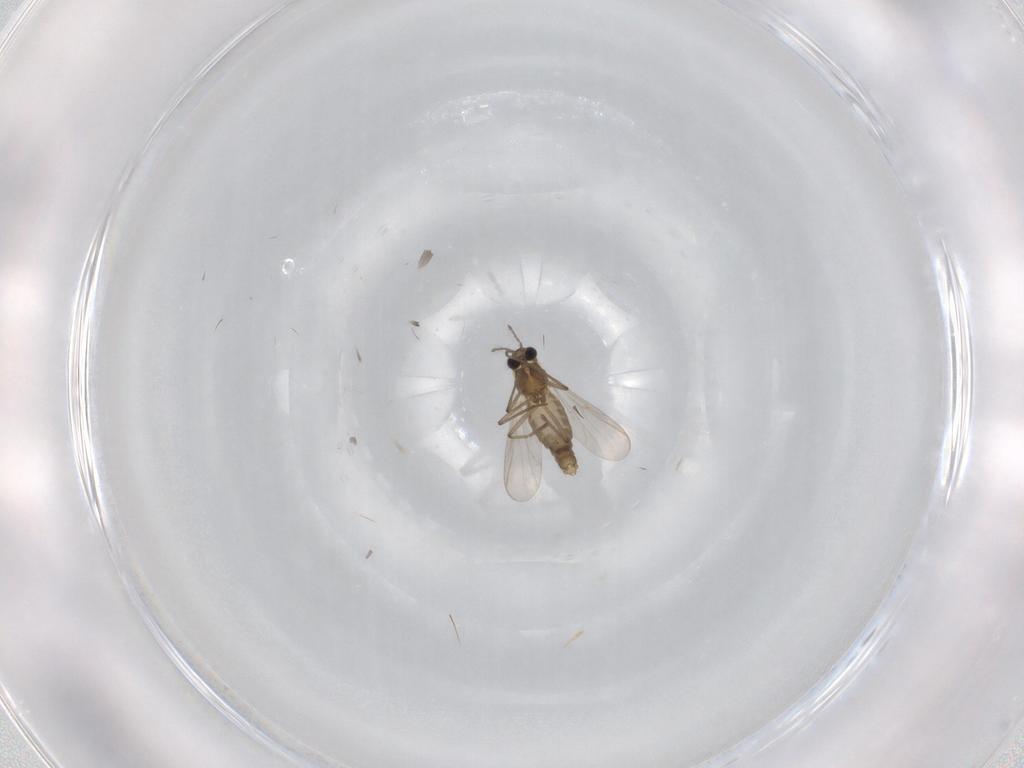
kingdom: Animalia
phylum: Arthropoda
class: Insecta
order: Diptera
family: Chironomidae
